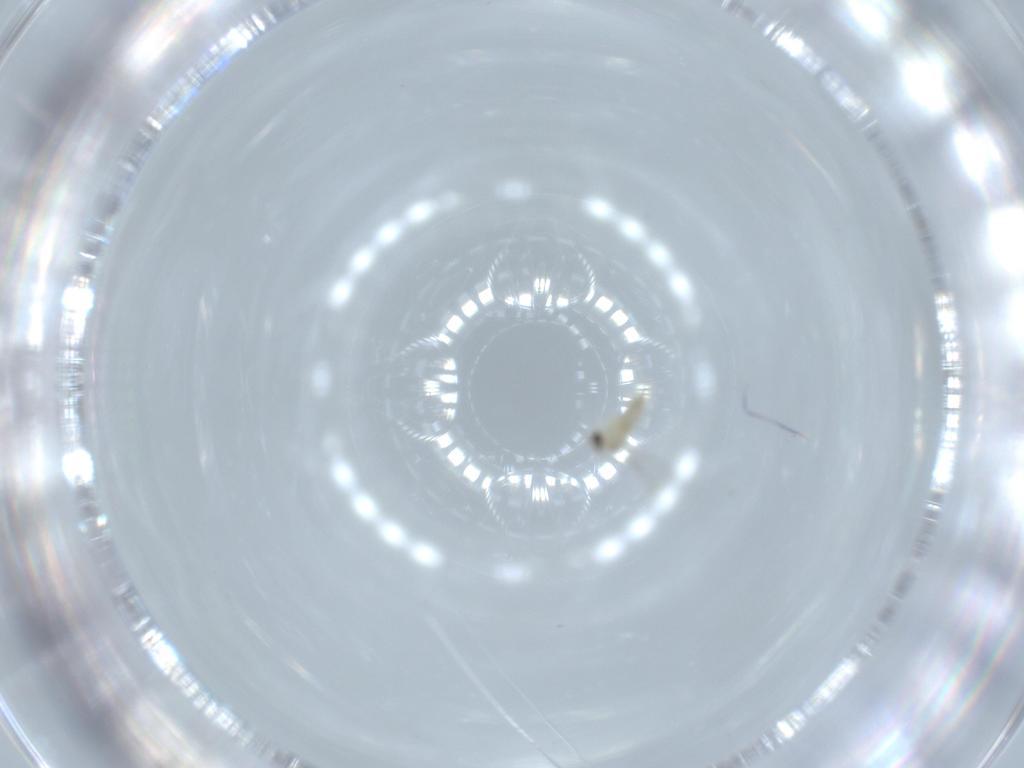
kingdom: Animalia
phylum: Arthropoda
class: Insecta
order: Diptera
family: Cecidomyiidae
